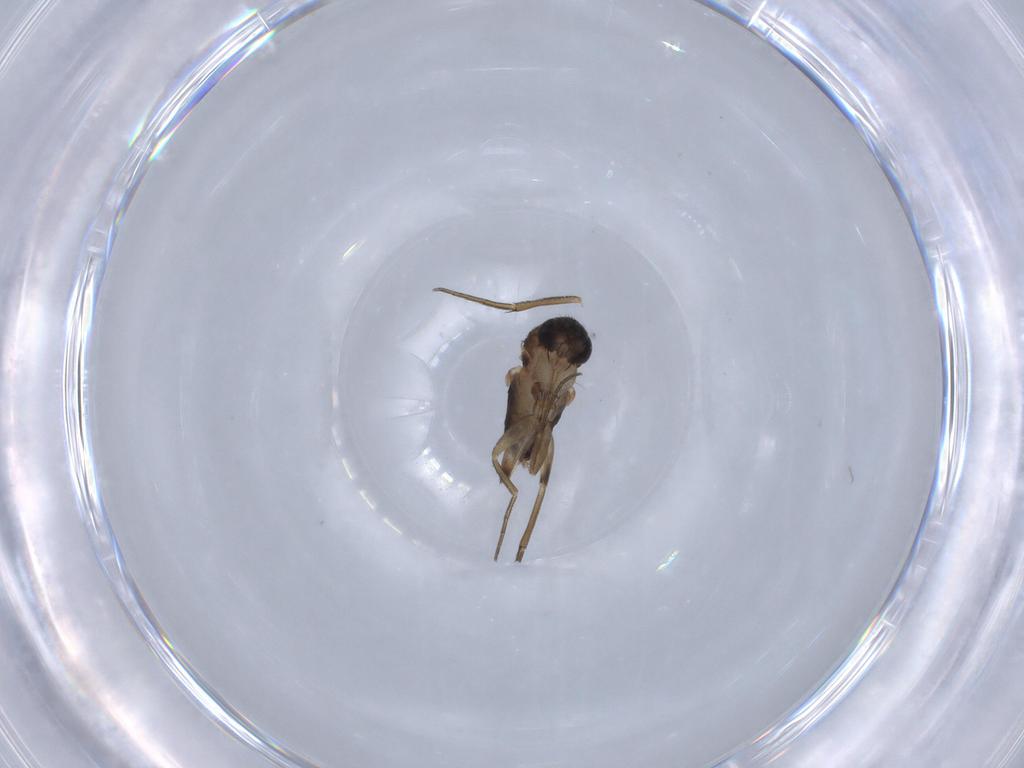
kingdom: Animalia
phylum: Arthropoda
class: Insecta
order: Diptera
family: Phoridae
